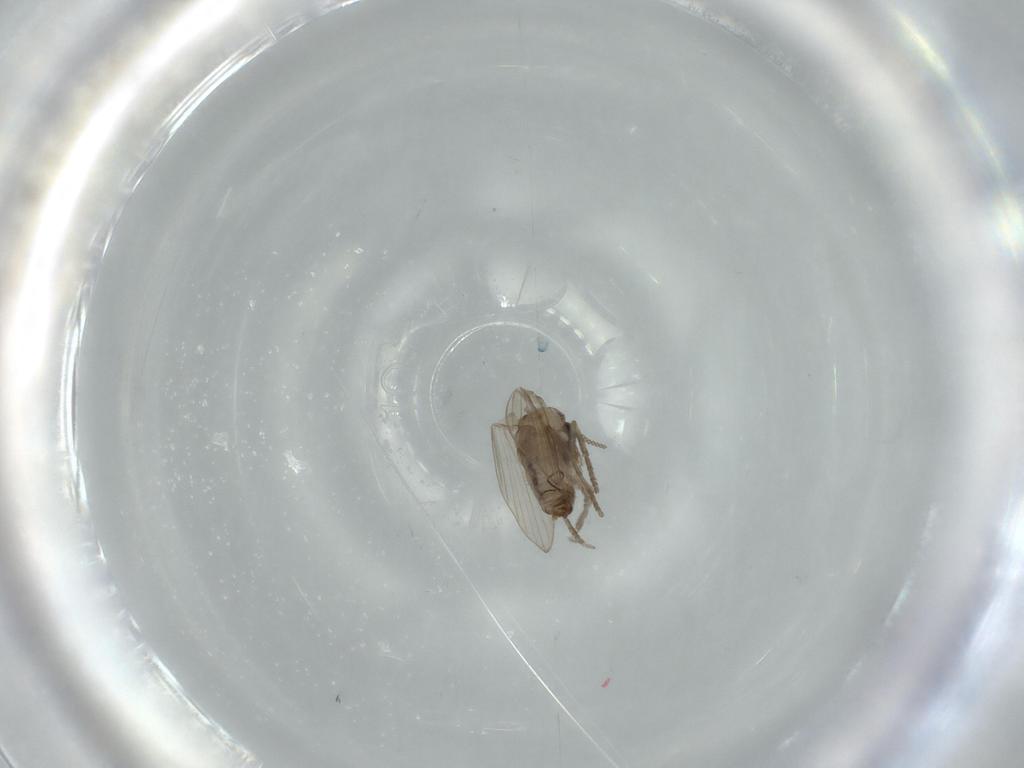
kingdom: Animalia
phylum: Arthropoda
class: Insecta
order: Diptera
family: Psychodidae
